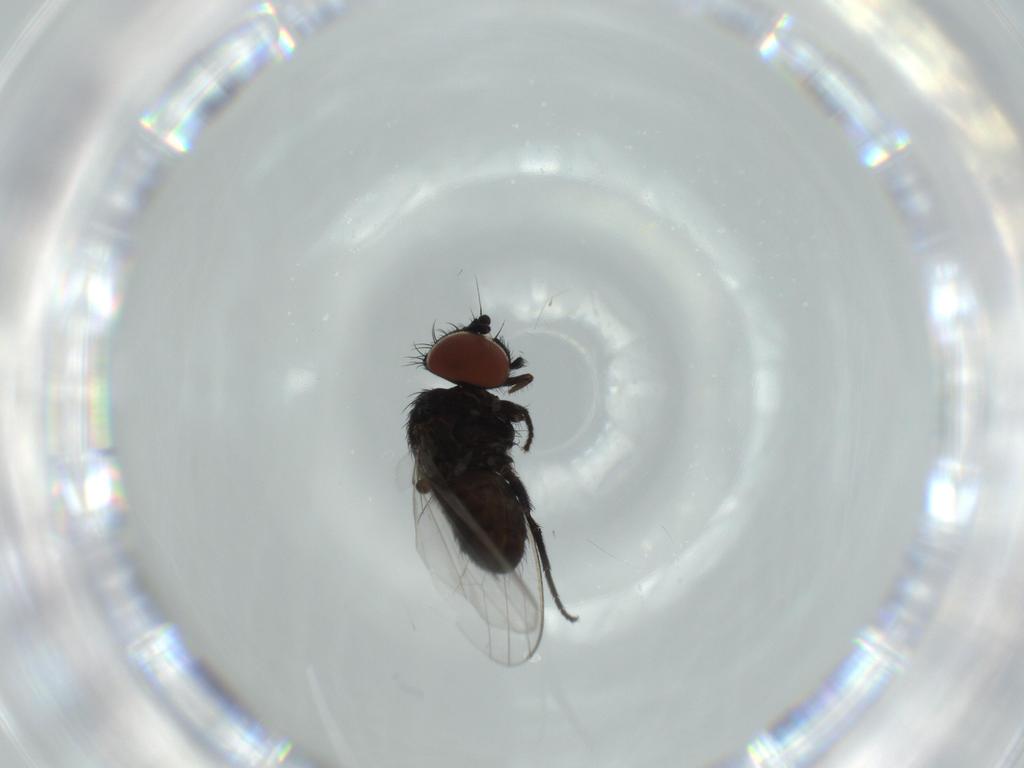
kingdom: Animalia
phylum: Arthropoda
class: Insecta
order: Diptera
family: Milichiidae
